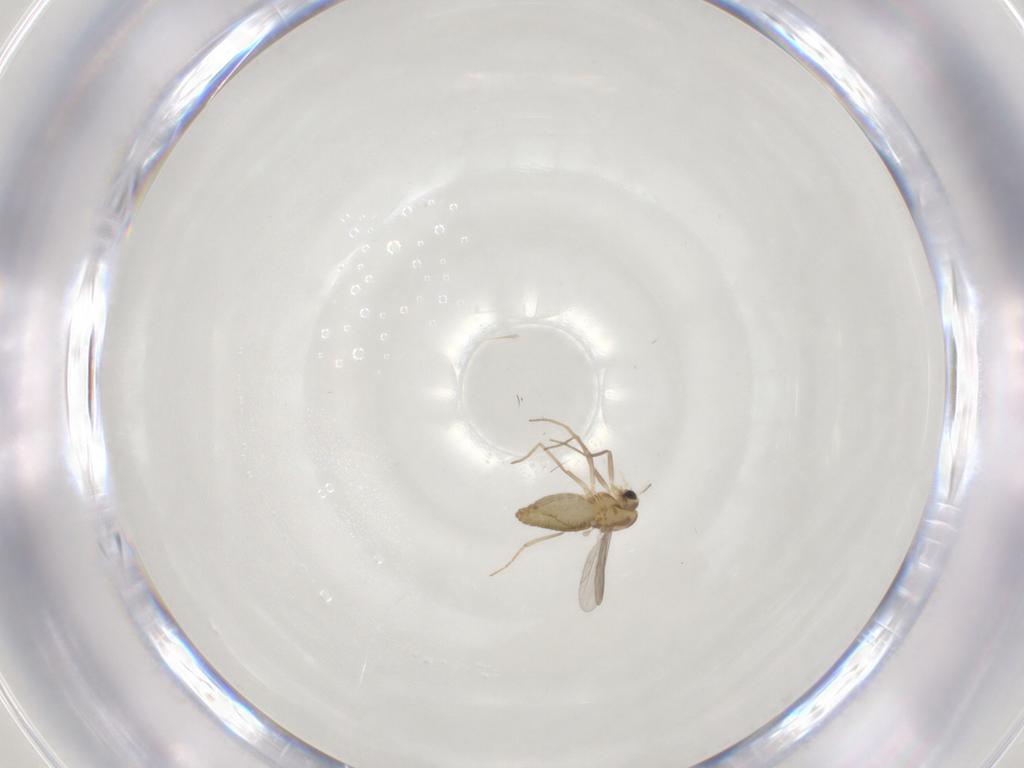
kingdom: Animalia
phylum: Arthropoda
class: Insecta
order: Diptera
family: Chironomidae
